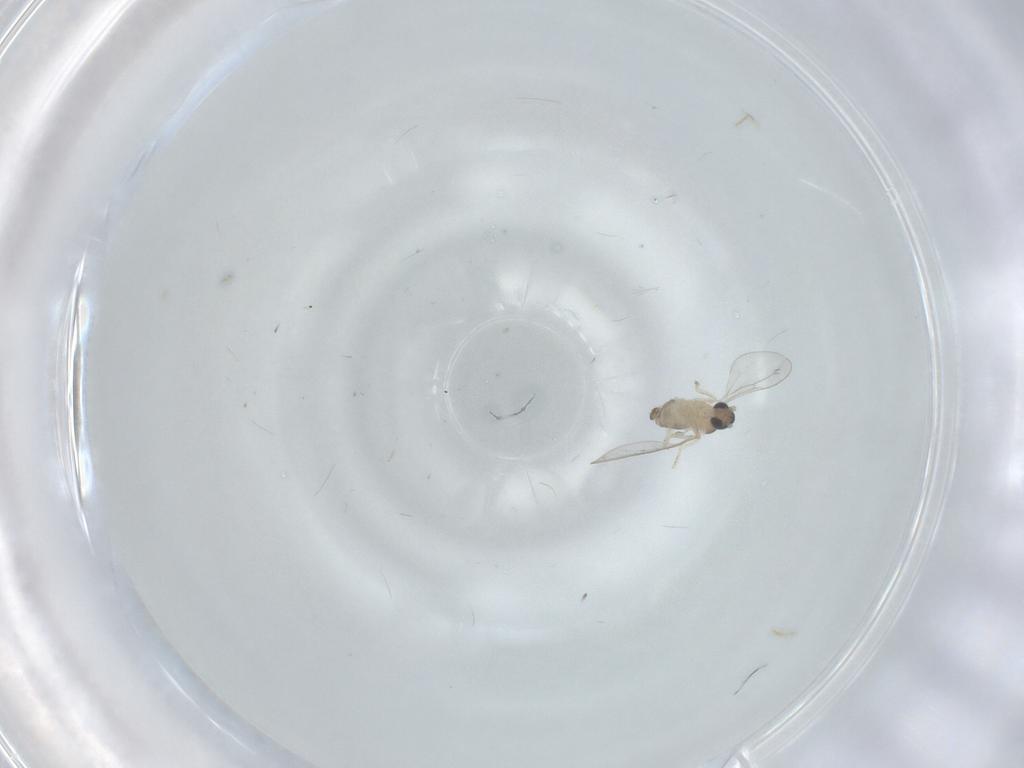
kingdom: Animalia
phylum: Arthropoda
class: Insecta
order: Diptera
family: Cecidomyiidae
